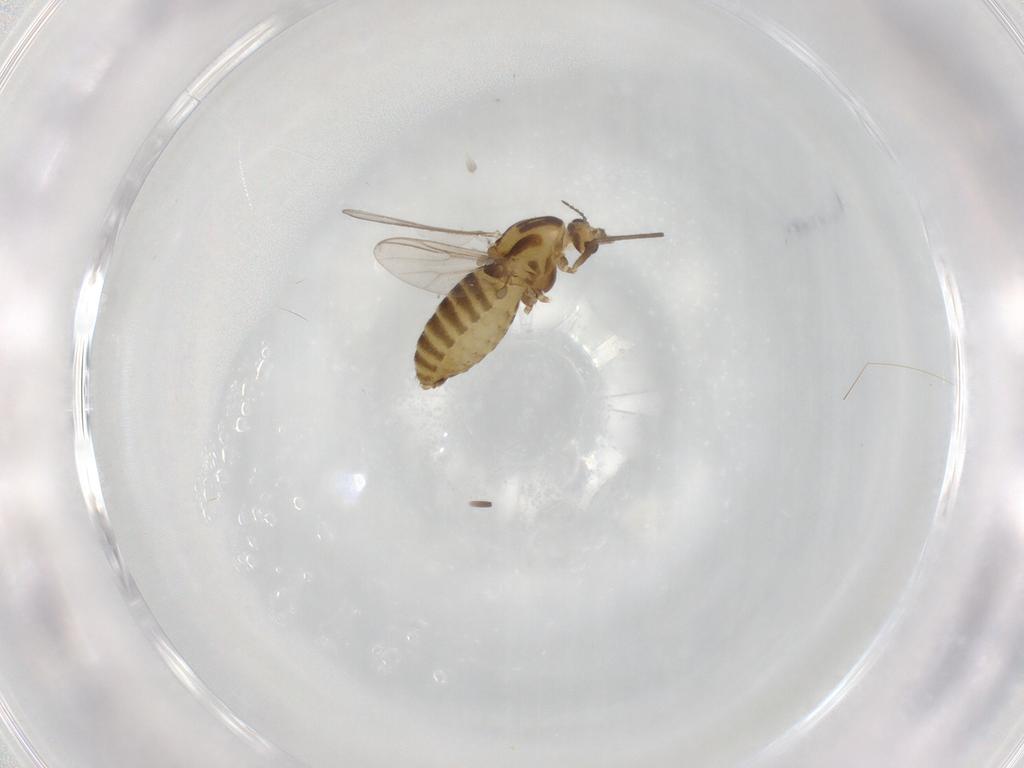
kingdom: Animalia
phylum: Arthropoda
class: Insecta
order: Diptera
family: Chironomidae
